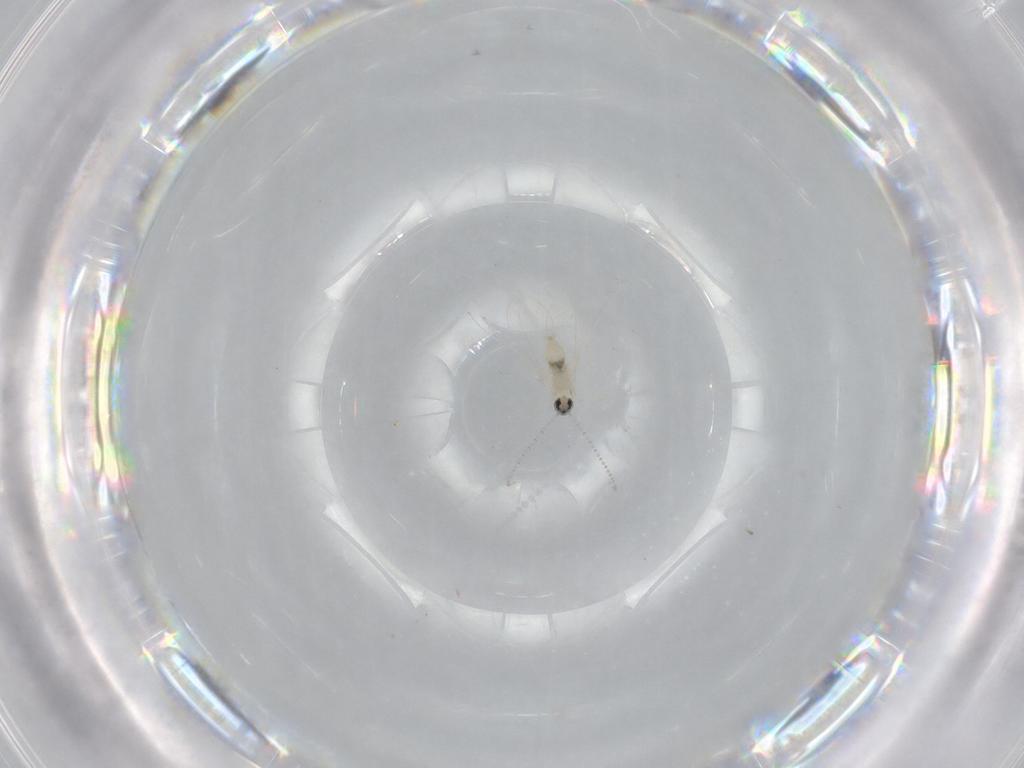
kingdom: Animalia
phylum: Arthropoda
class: Insecta
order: Diptera
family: Cecidomyiidae
